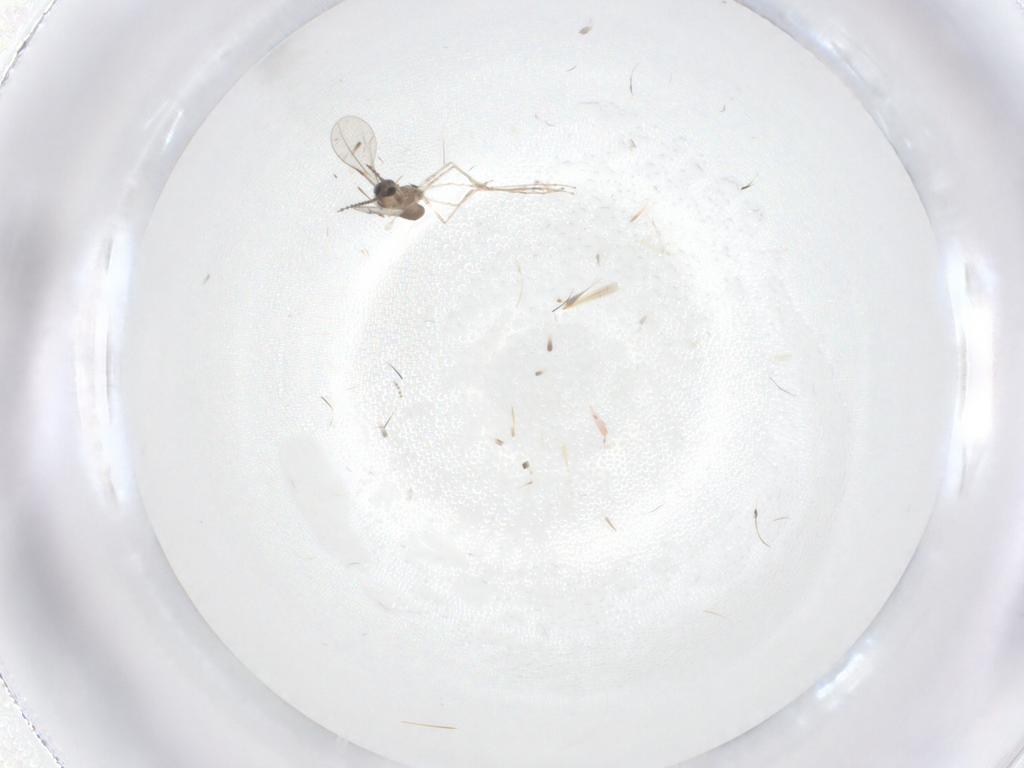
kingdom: Animalia
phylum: Arthropoda
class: Insecta
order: Diptera
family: Cecidomyiidae
